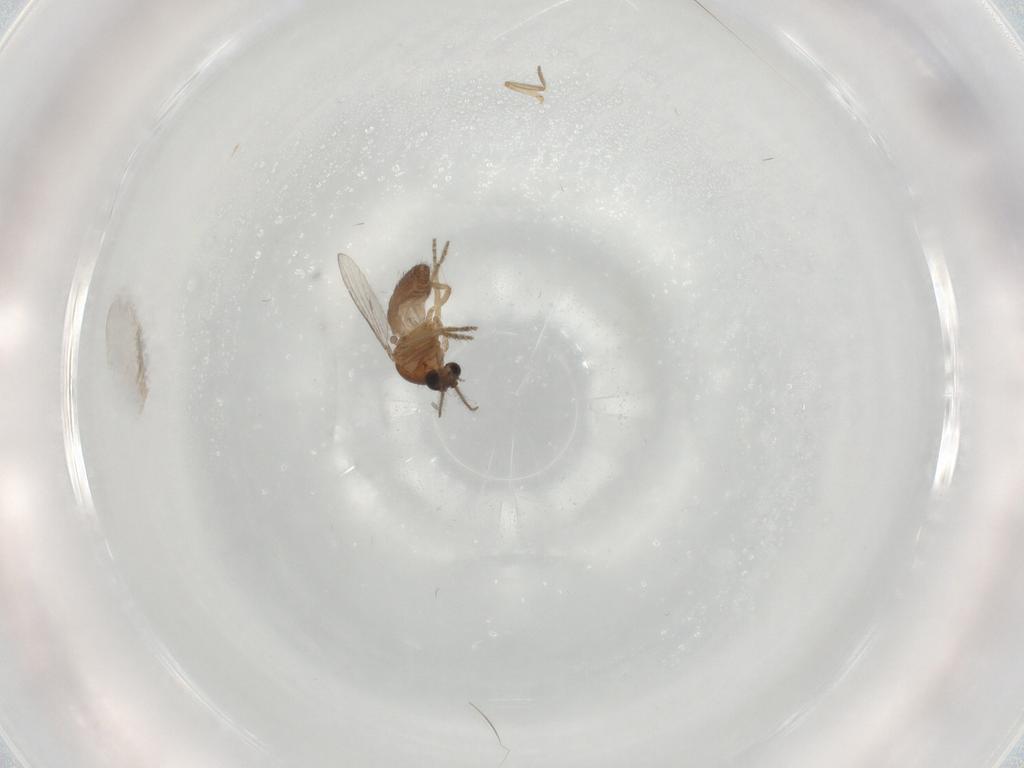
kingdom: Animalia
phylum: Arthropoda
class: Insecta
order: Diptera
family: Ceratopogonidae
